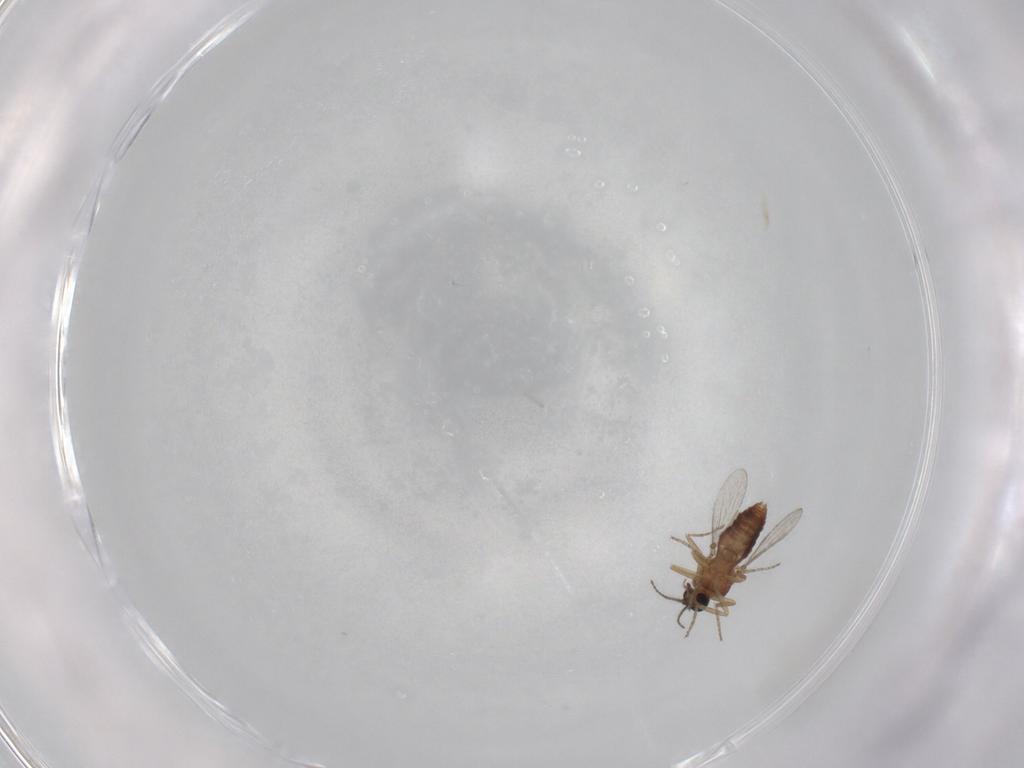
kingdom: Animalia
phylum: Arthropoda
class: Insecta
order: Diptera
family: Ceratopogonidae
